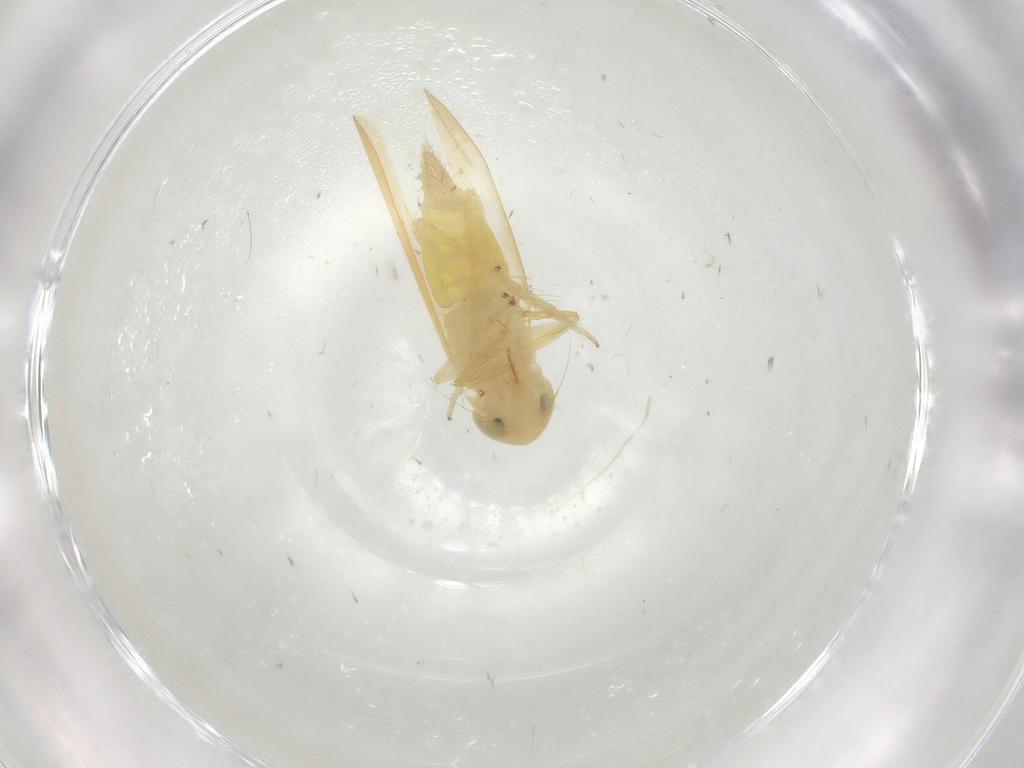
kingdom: Animalia
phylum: Arthropoda
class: Insecta
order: Hemiptera
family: Cicadellidae
